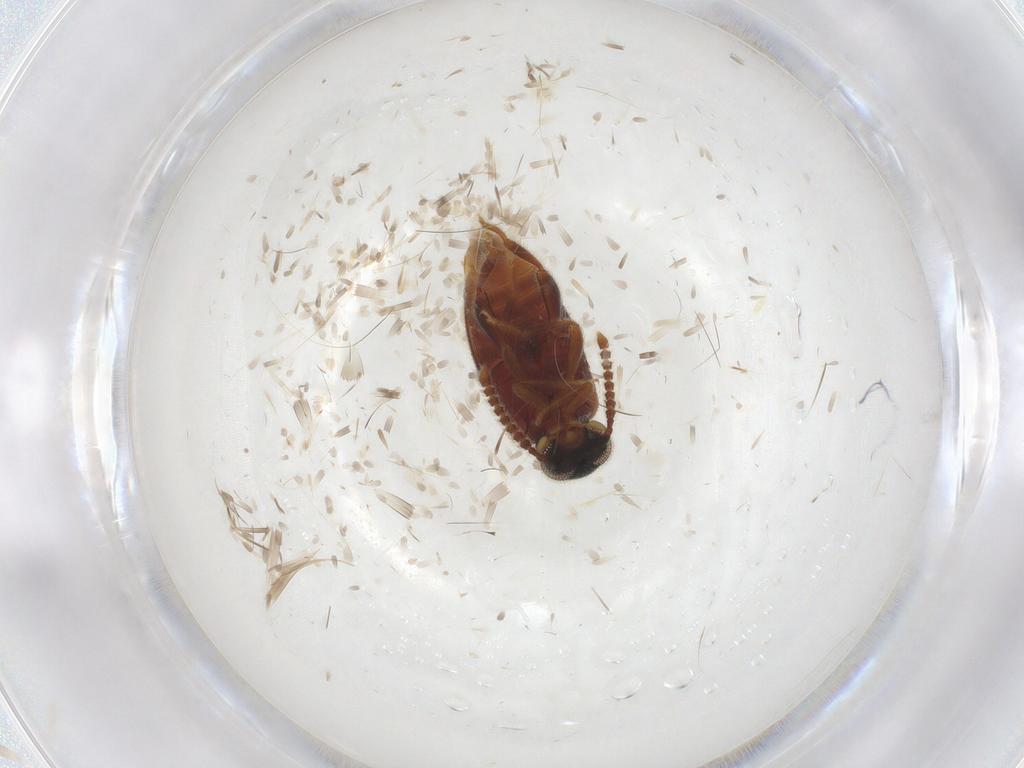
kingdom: Animalia
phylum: Arthropoda
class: Insecta
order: Coleoptera
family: Aderidae
